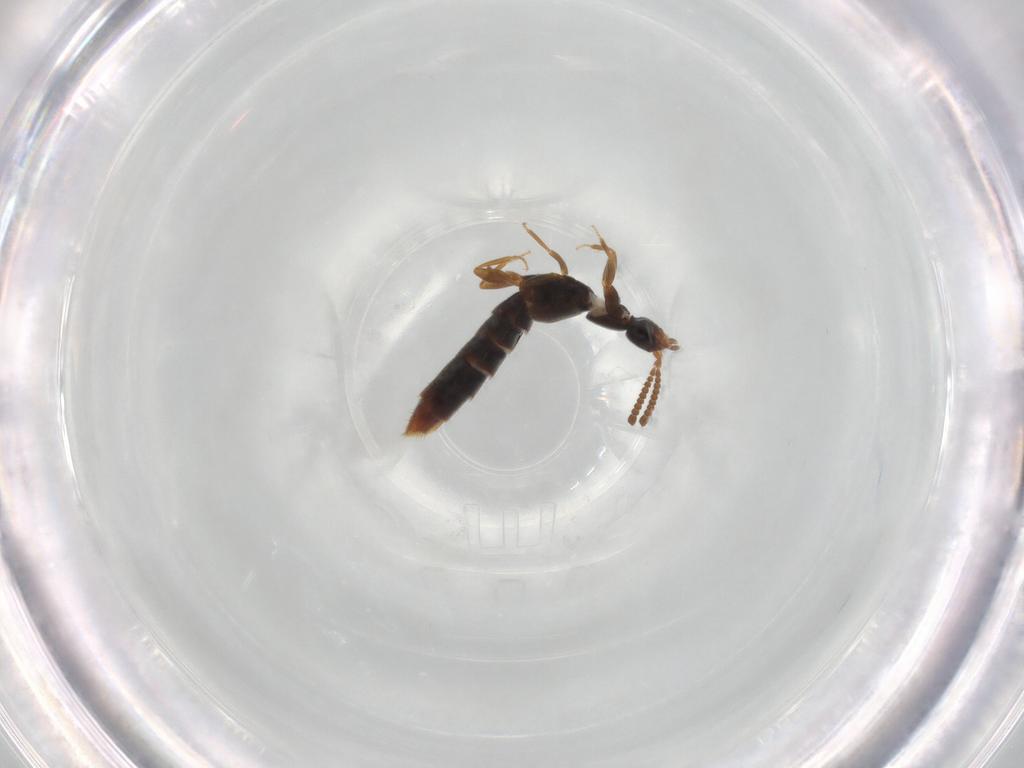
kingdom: Animalia
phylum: Arthropoda
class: Insecta
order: Coleoptera
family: Staphylinidae
